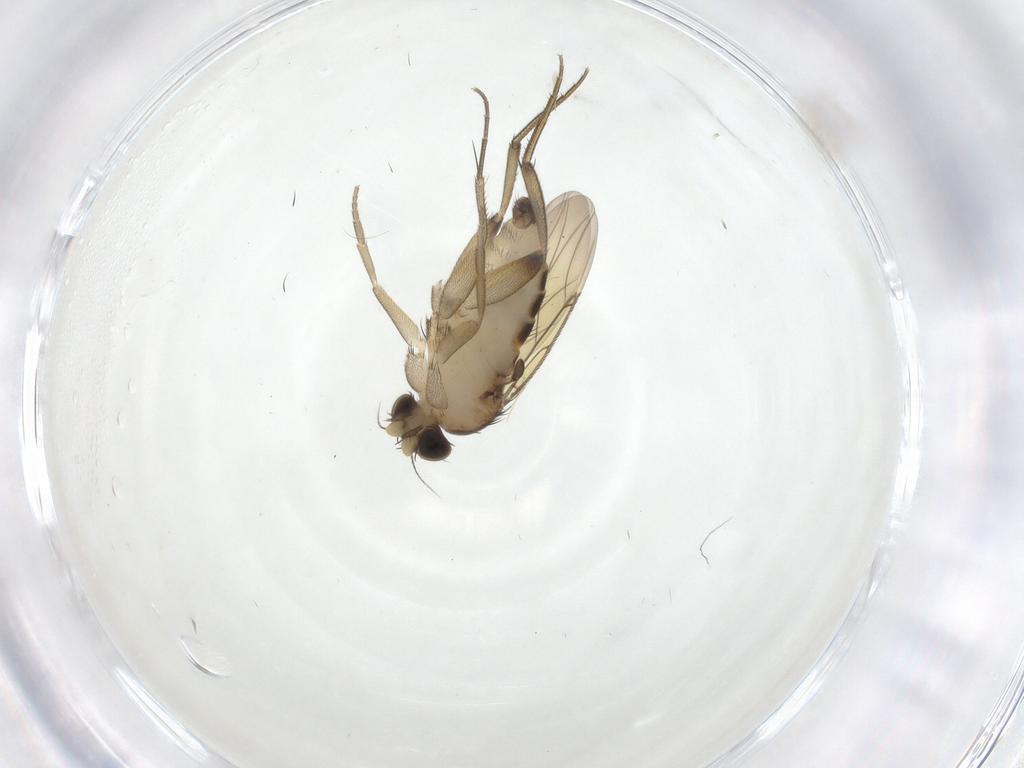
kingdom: Animalia
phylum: Arthropoda
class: Insecta
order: Diptera
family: Phoridae
